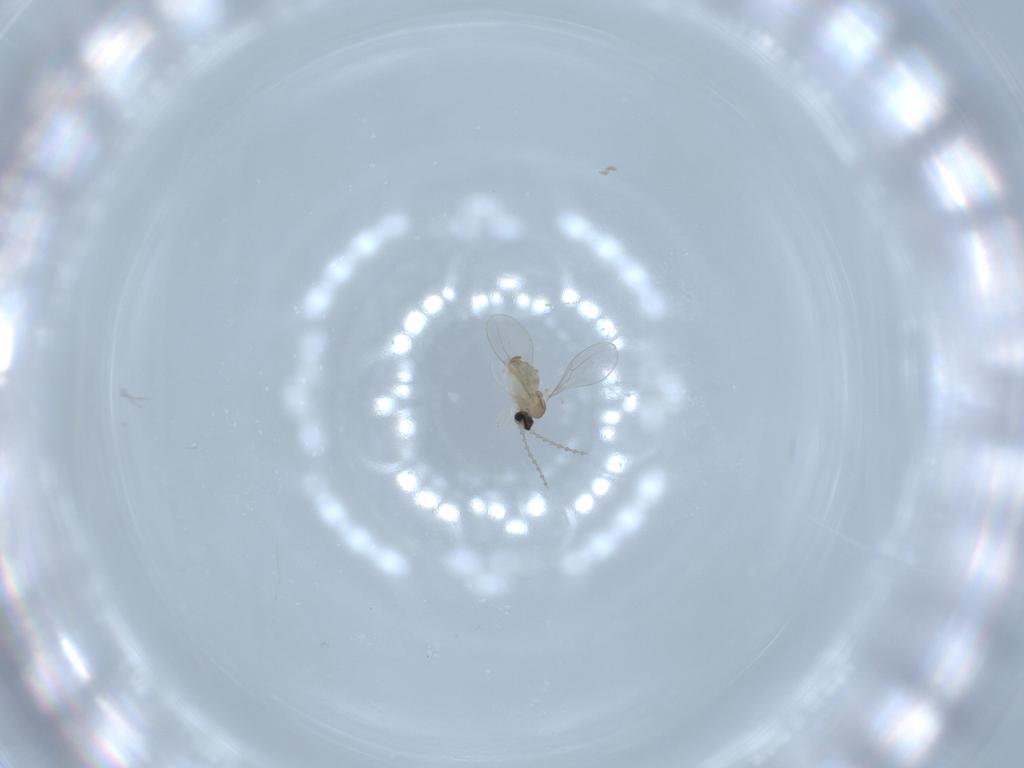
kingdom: Animalia
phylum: Arthropoda
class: Insecta
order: Diptera
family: Cecidomyiidae
